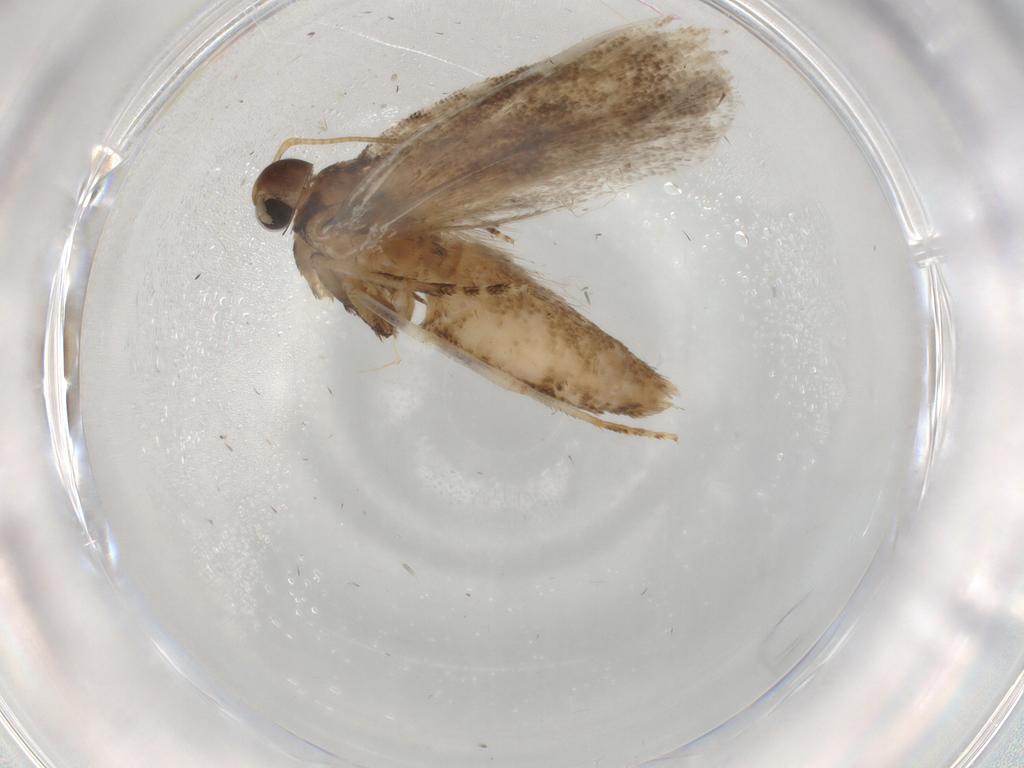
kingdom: Animalia
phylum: Arthropoda
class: Insecta
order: Lepidoptera
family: Gelechiidae
